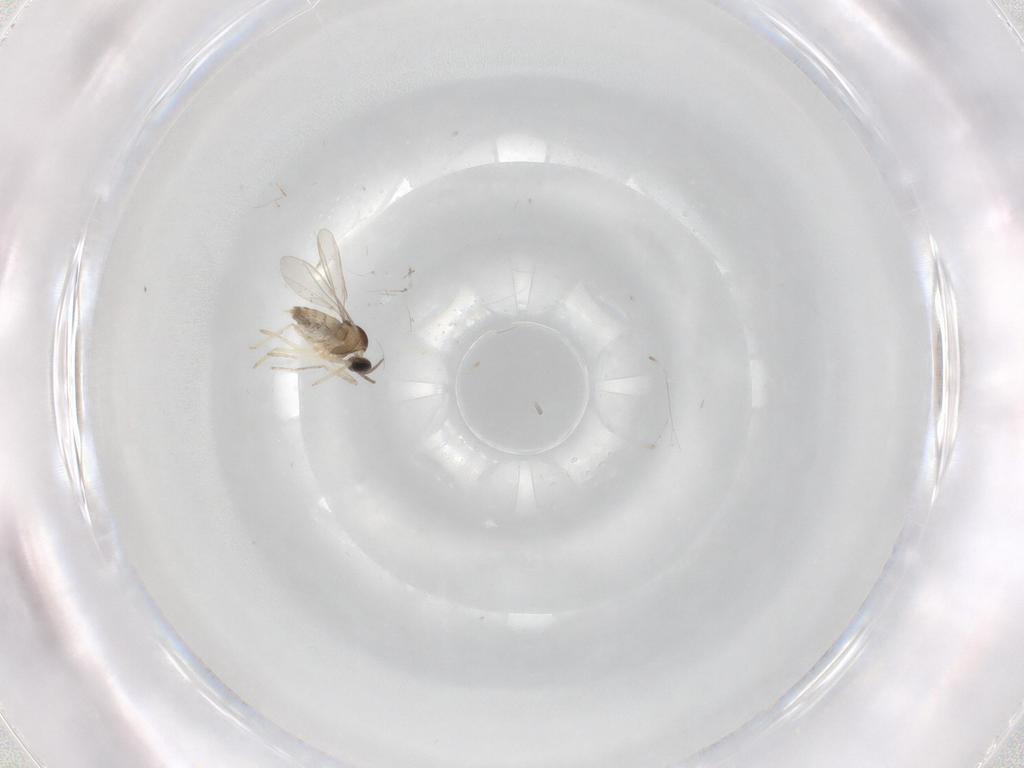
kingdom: Animalia
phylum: Arthropoda
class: Insecta
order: Diptera
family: Cecidomyiidae
